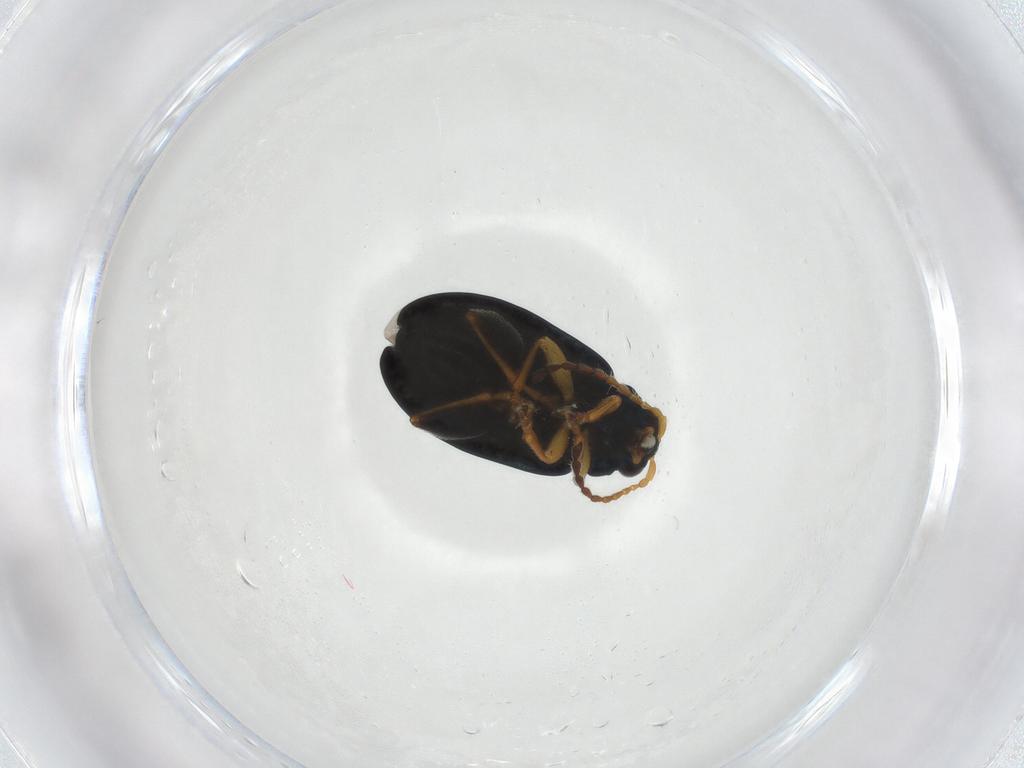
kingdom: Animalia
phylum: Arthropoda
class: Insecta
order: Coleoptera
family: Chrysomelidae
